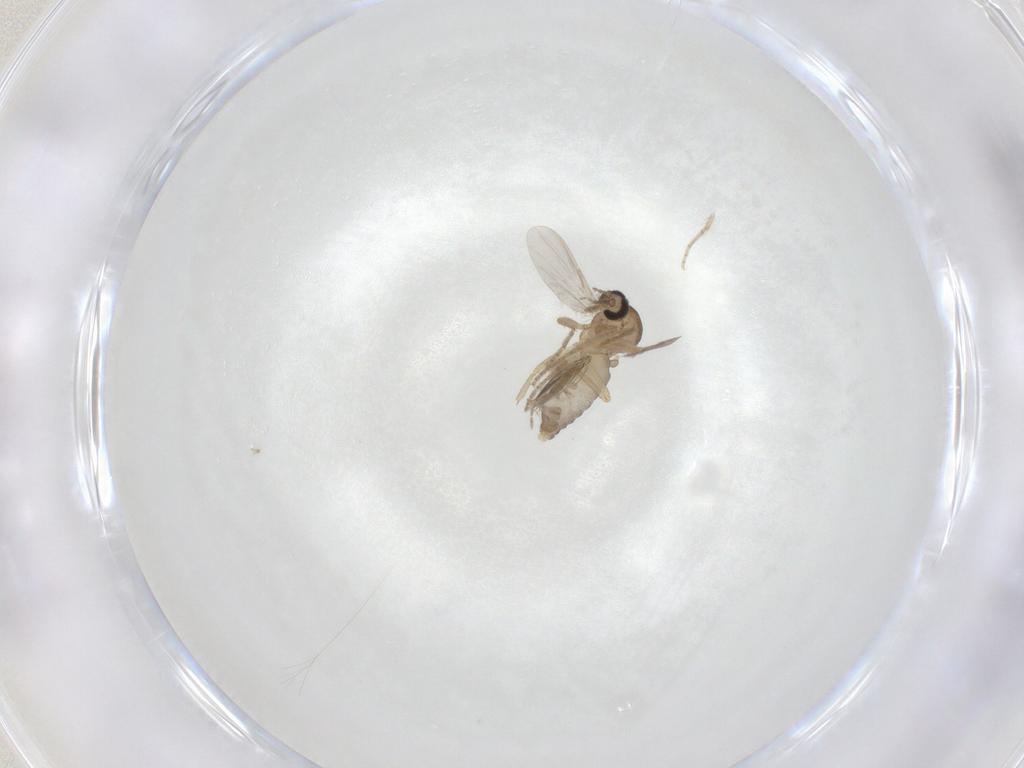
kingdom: Animalia
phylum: Arthropoda
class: Insecta
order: Diptera
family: Ceratopogonidae
